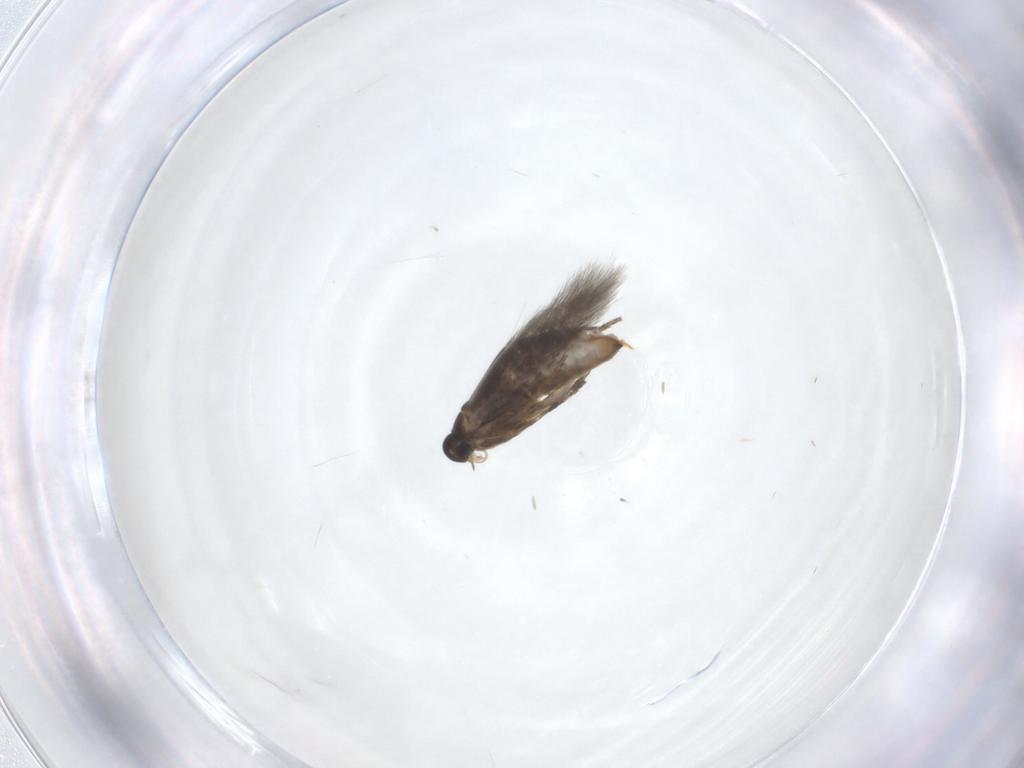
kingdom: Animalia
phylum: Arthropoda
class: Insecta
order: Lepidoptera
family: Heliozelidae
